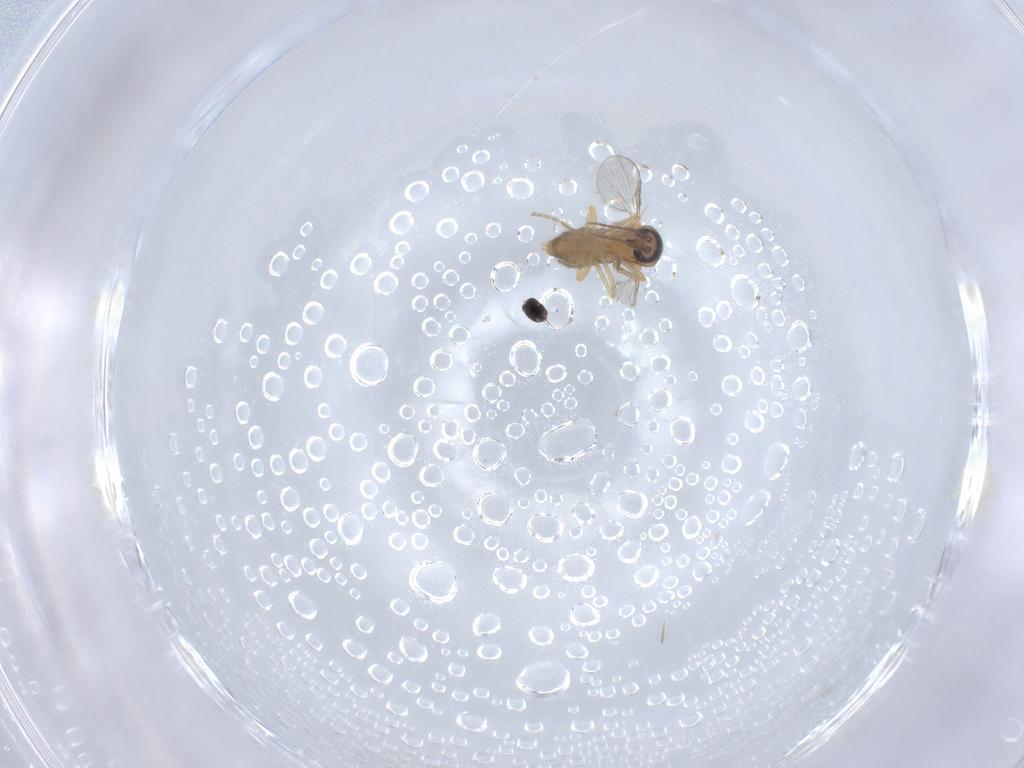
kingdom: Animalia
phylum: Arthropoda
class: Insecta
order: Diptera
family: Ceratopogonidae
